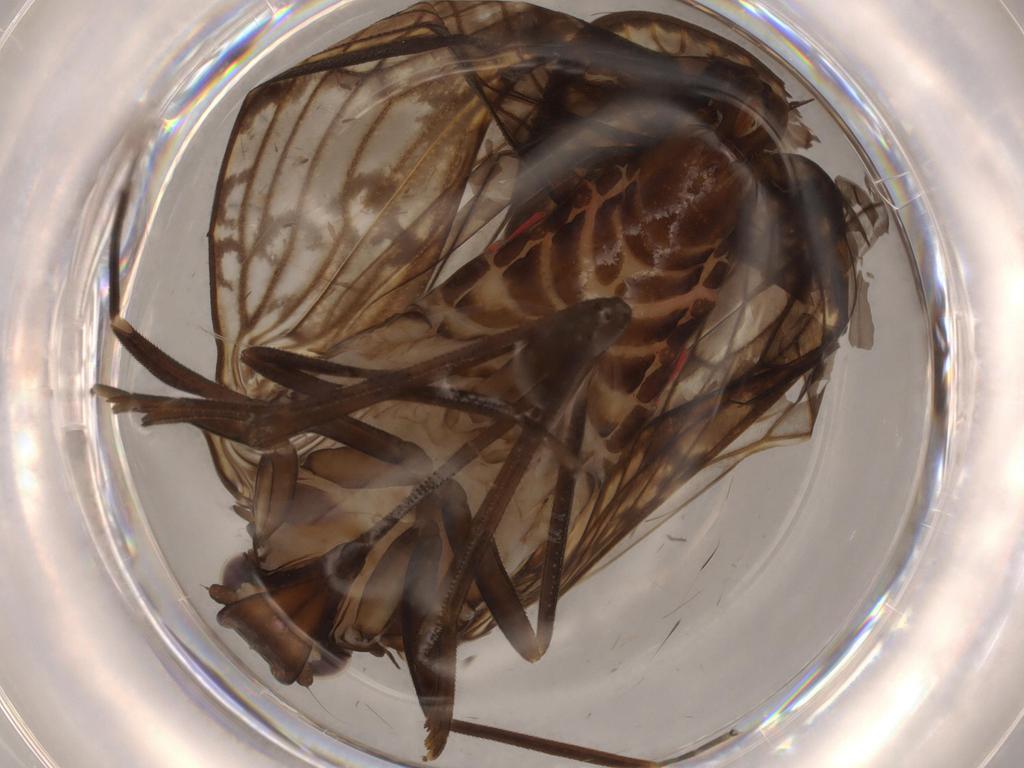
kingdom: Animalia
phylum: Arthropoda
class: Insecta
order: Hemiptera
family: Cixiidae
